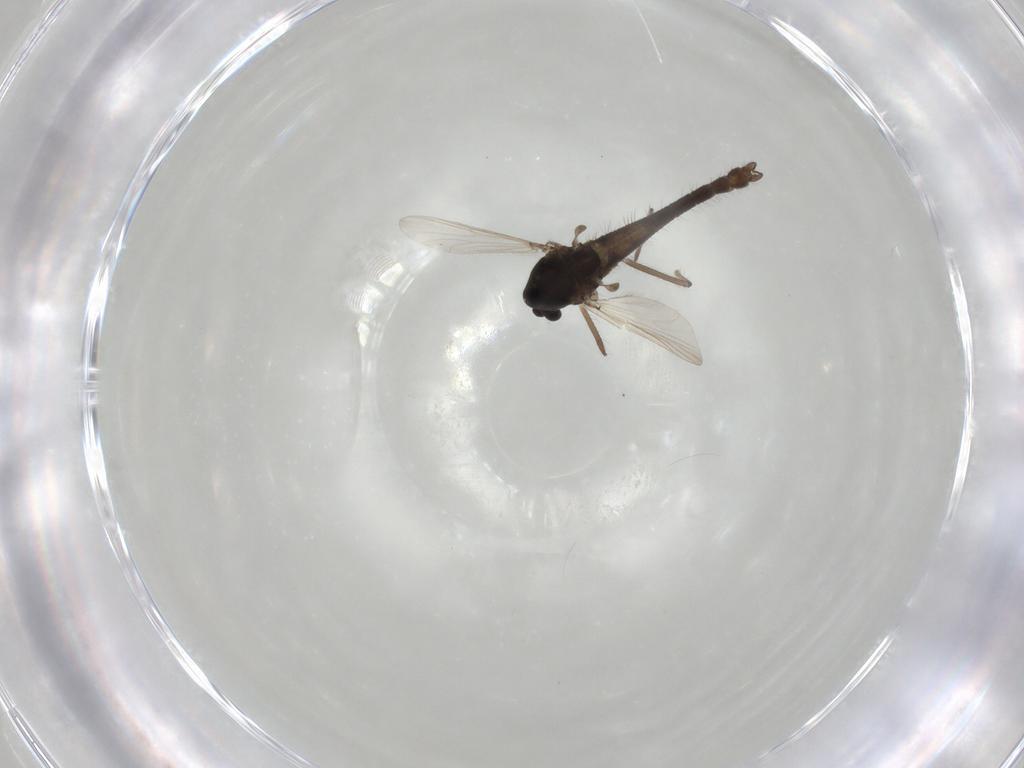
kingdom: Animalia
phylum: Arthropoda
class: Insecta
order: Diptera
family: Chironomidae
